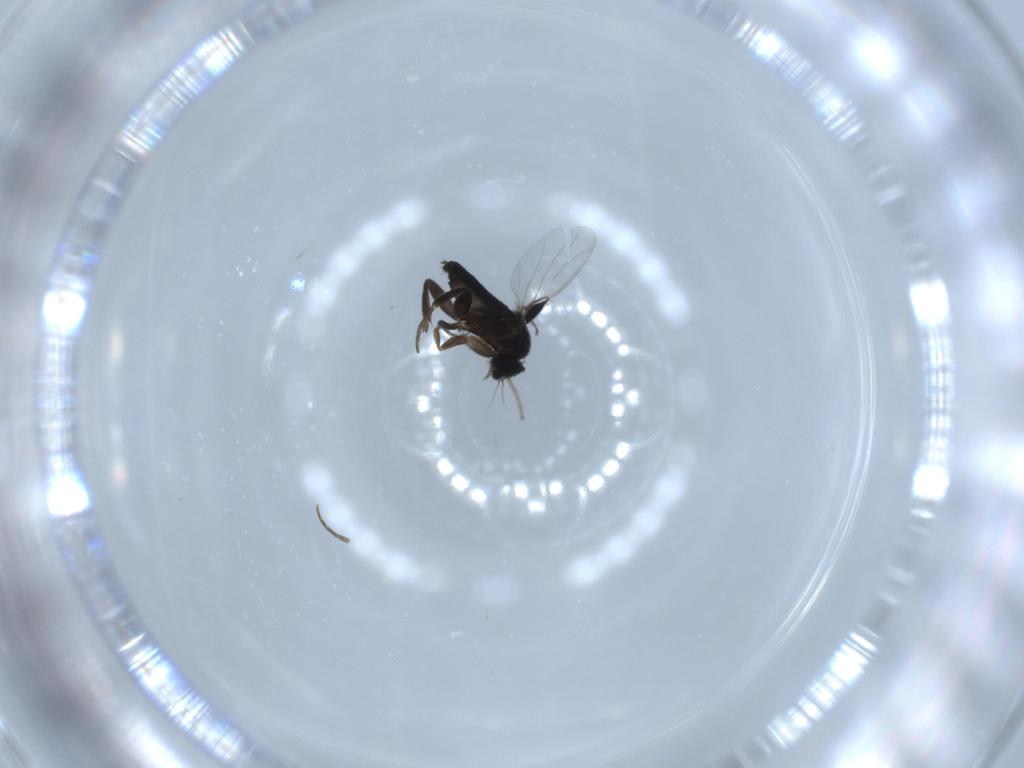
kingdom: Animalia
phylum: Arthropoda
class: Insecta
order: Diptera
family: Phoridae
